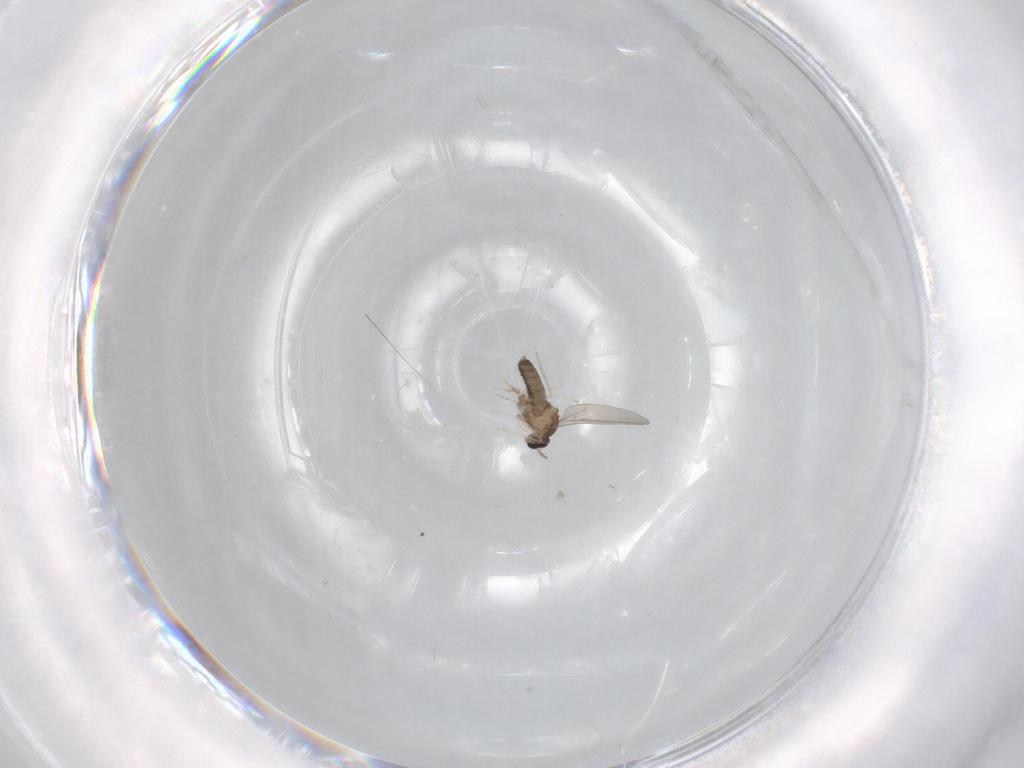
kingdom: Animalia
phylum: Arthropoda
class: Insecta
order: Diptera
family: Cecidomyiidae
